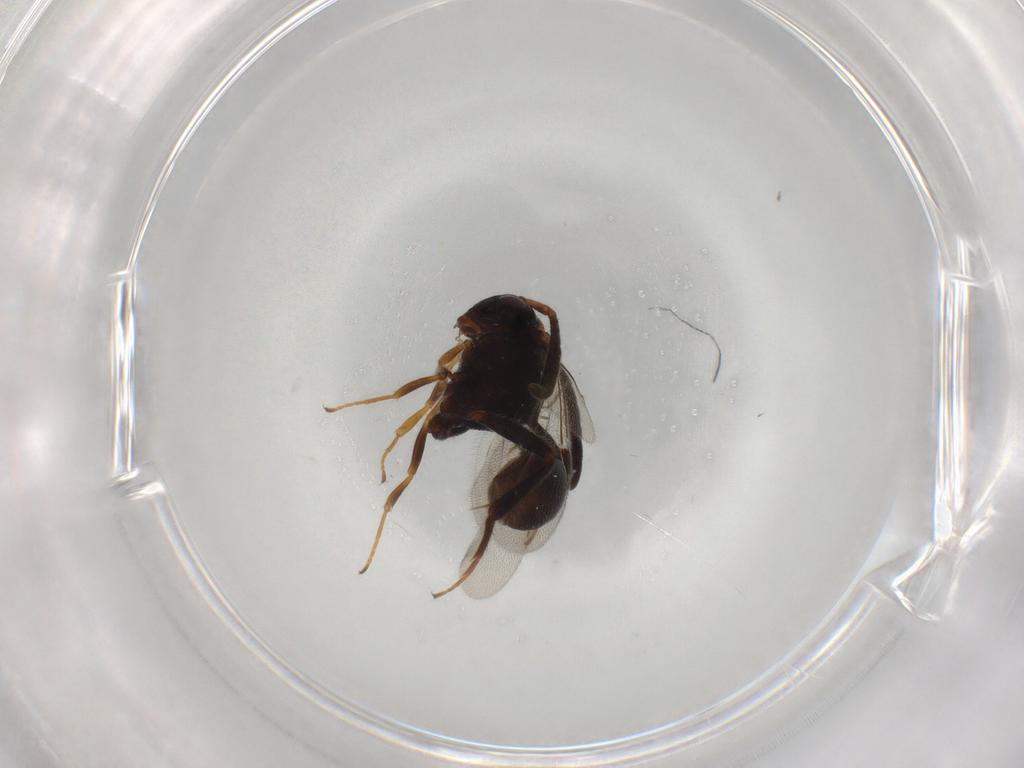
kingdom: Animalia
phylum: Arthropoda
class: Insecta
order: Hymenoptera
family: Evaniidae
